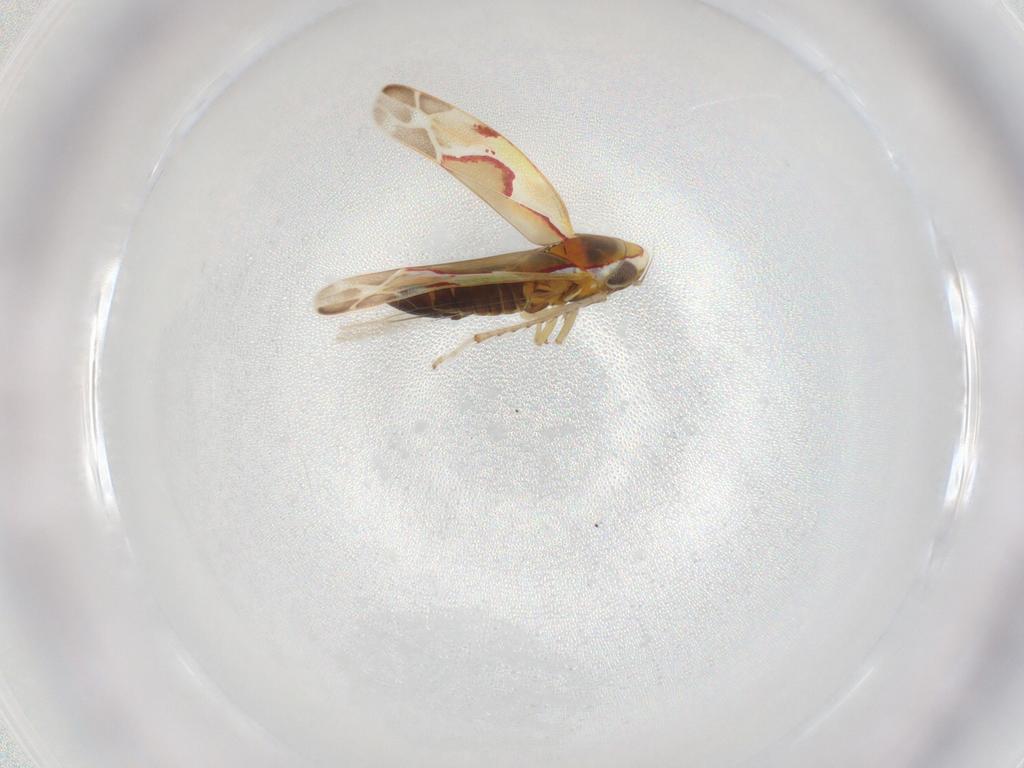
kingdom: Animalia
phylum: Arthropoda
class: Insecta
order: Hemiptera
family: Cicadellidae
